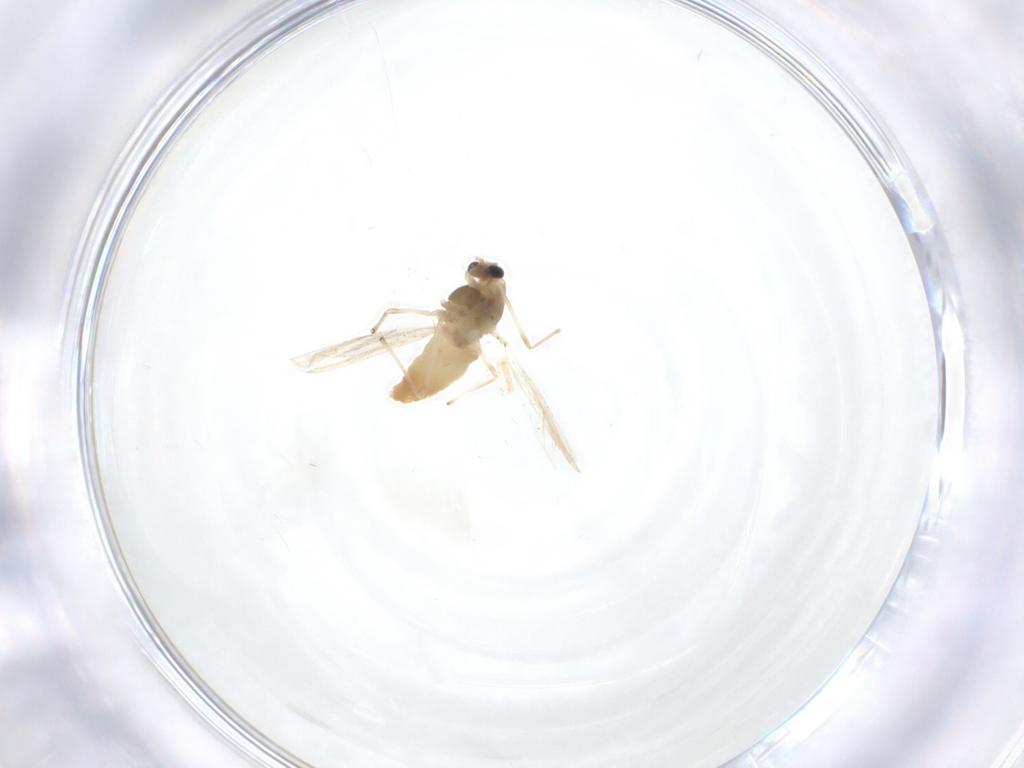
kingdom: Animalia
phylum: Arthropoda
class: Insecta
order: Diptera
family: Chironomidae
